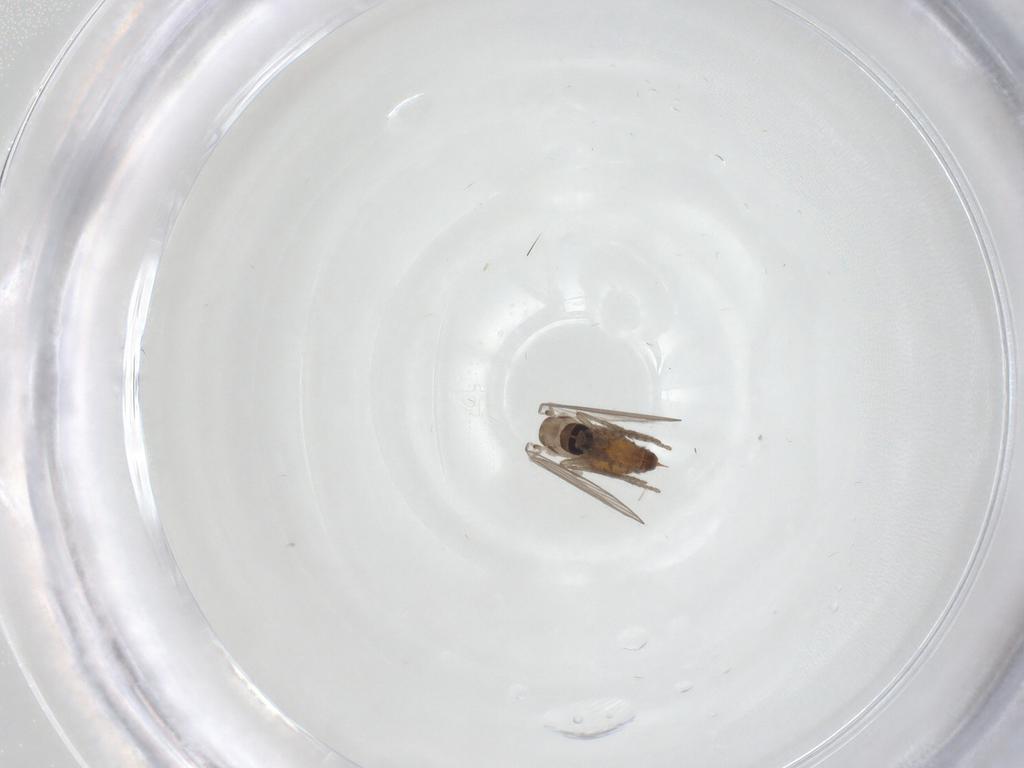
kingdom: Animalia
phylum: Arthropoda
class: Insecta
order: Diptera
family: Psychodidae
